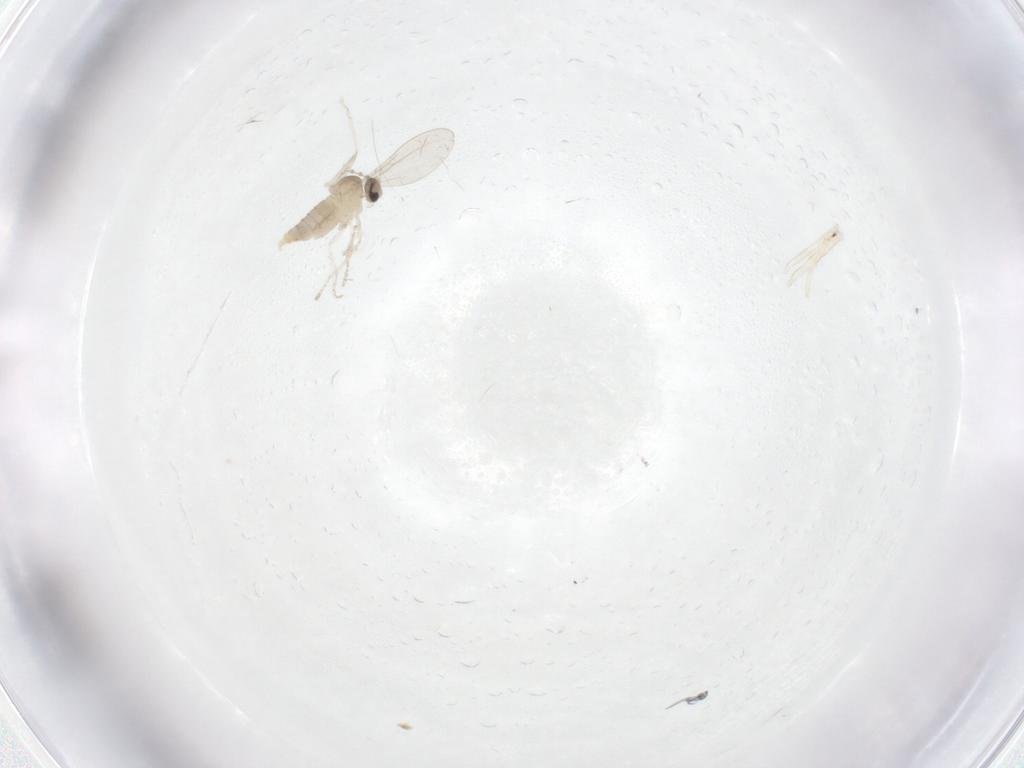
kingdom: Animalia
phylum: Arthropoda
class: Insecta
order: Diptera
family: Cecidomyiidae
